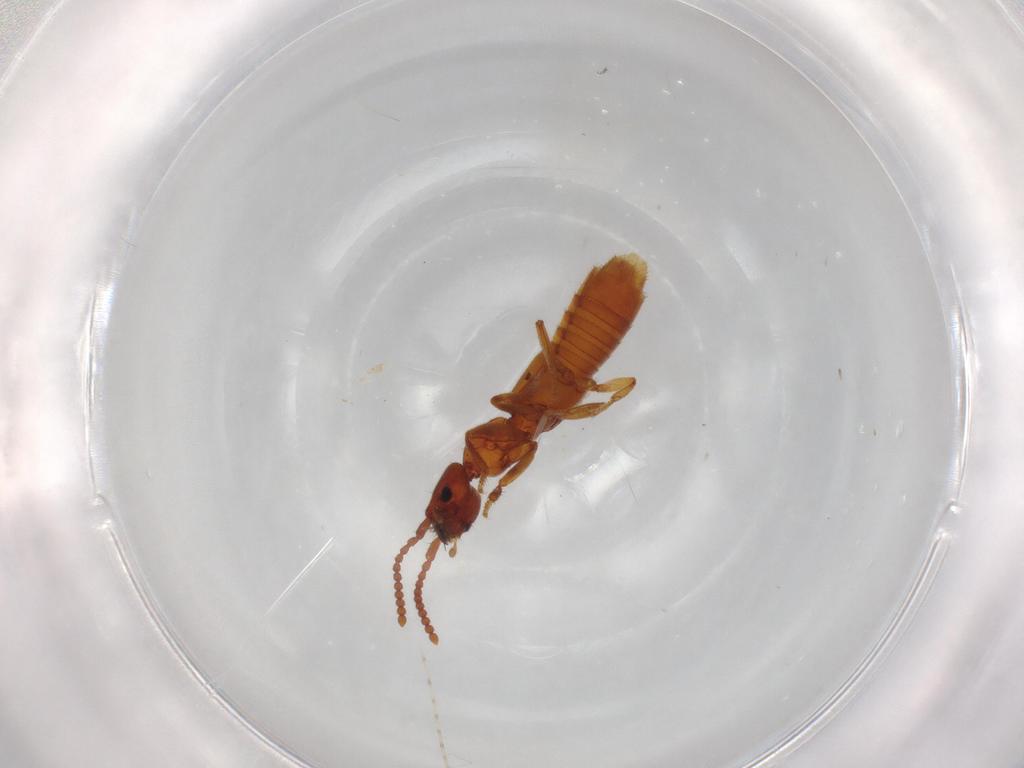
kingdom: Animalia
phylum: Arthropoda
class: Insecta
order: Coleoptera
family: Staphylinidae
